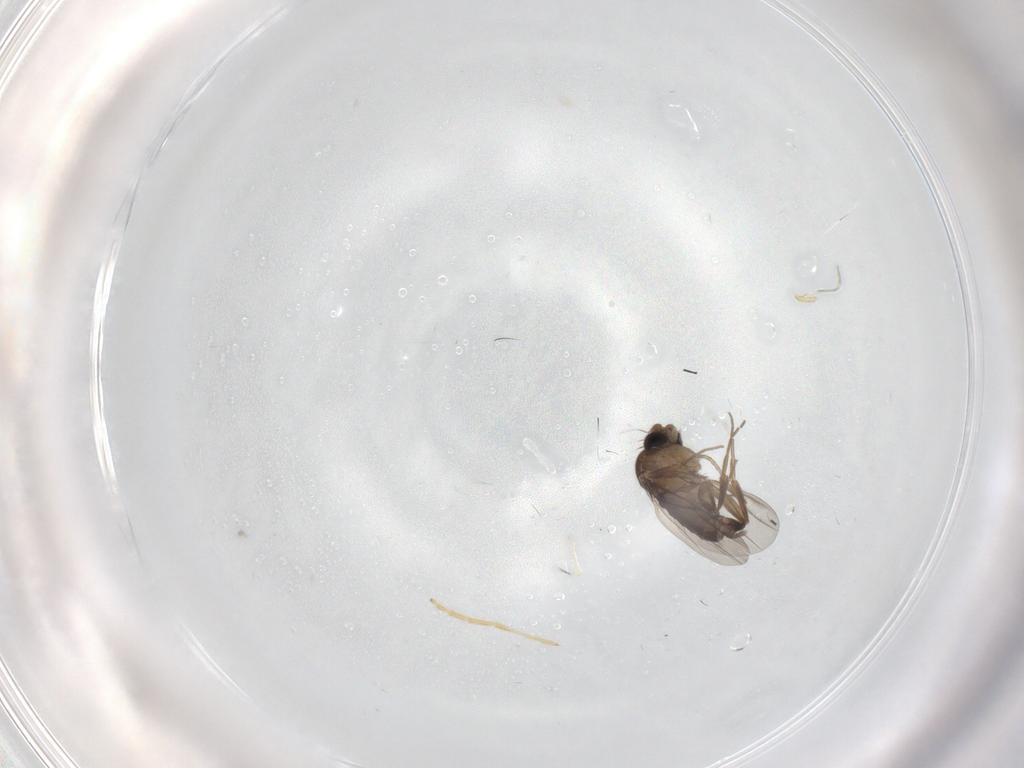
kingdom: Animalia
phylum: Arthropoda
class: Insecta
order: Diptera
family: Phoridae
